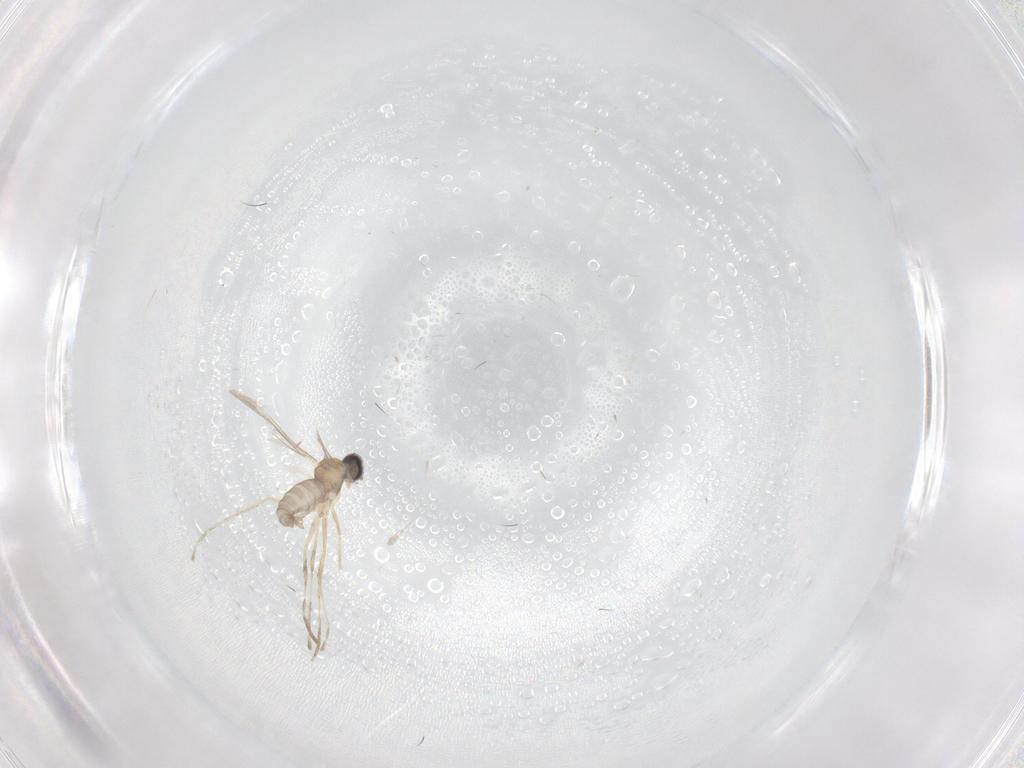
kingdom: Animalia
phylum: Arthropoda
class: Insecta
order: Diptera
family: Cecidomyiidae
